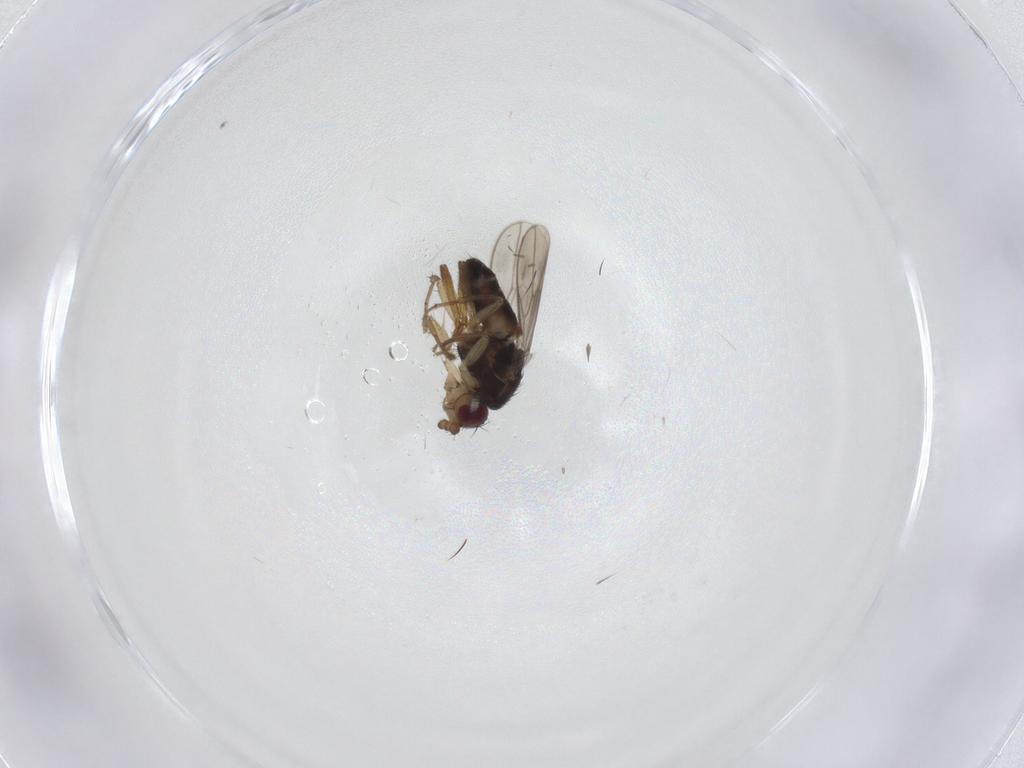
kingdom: Animalia
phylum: Arthropoda
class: Insecta
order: Diptera
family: Sphaeroceridae
